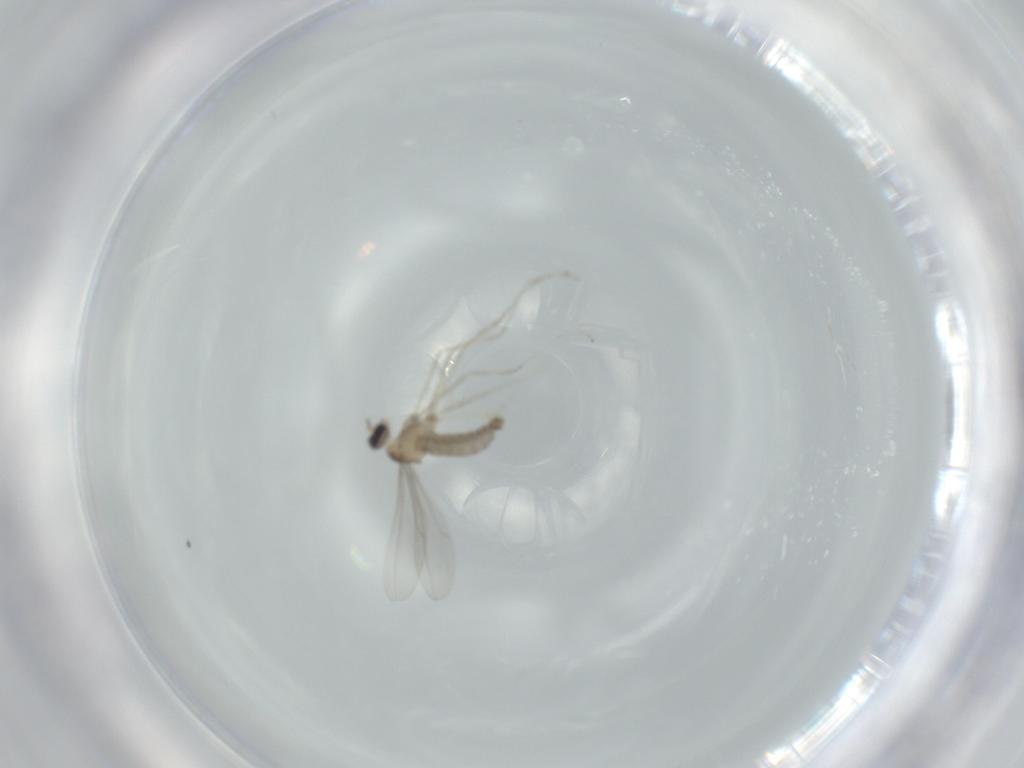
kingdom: Animalia
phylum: Arthropoda
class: Insecta
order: Diptera
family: Cecidomyiidae
